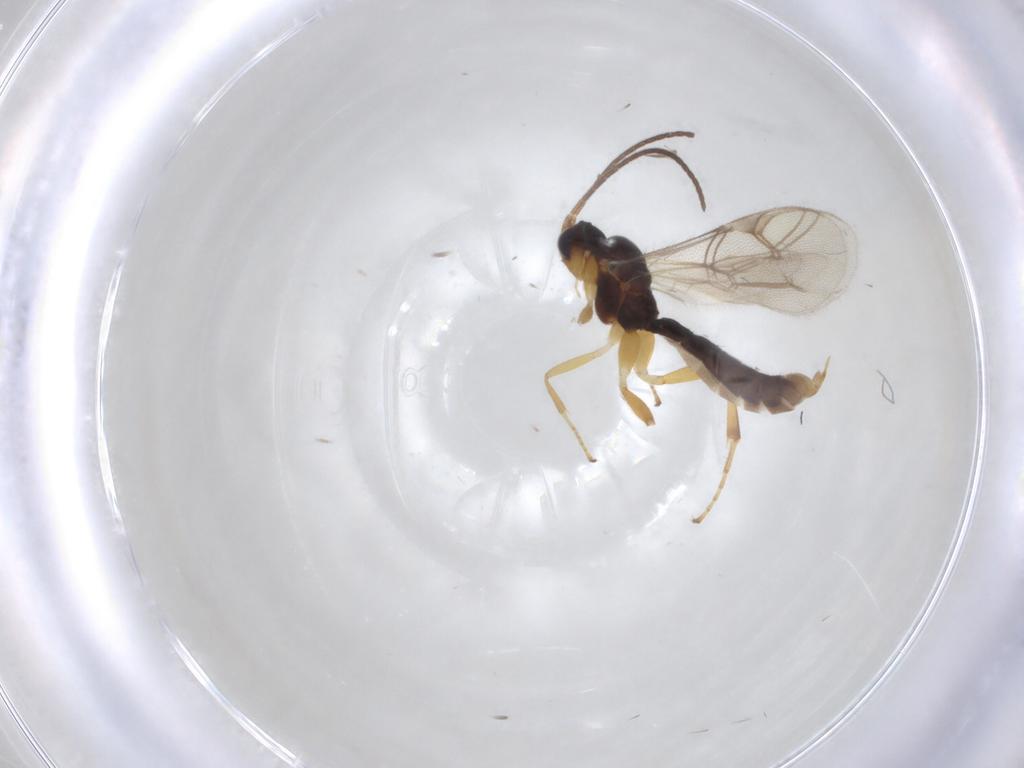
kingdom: Animalia
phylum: Arthropoda
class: Insecta
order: Hymenoptera
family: Ichneumonidae
